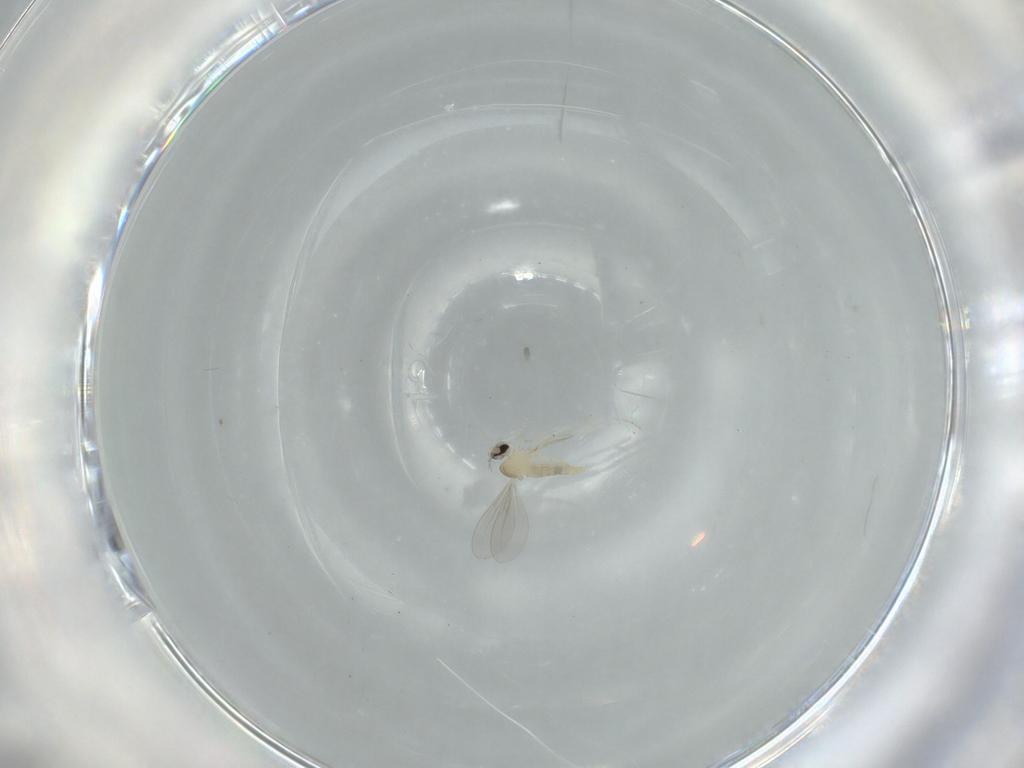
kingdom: Animalia
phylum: Arthropoda
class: Insecta
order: Diptera
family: Cecidomyiidae
